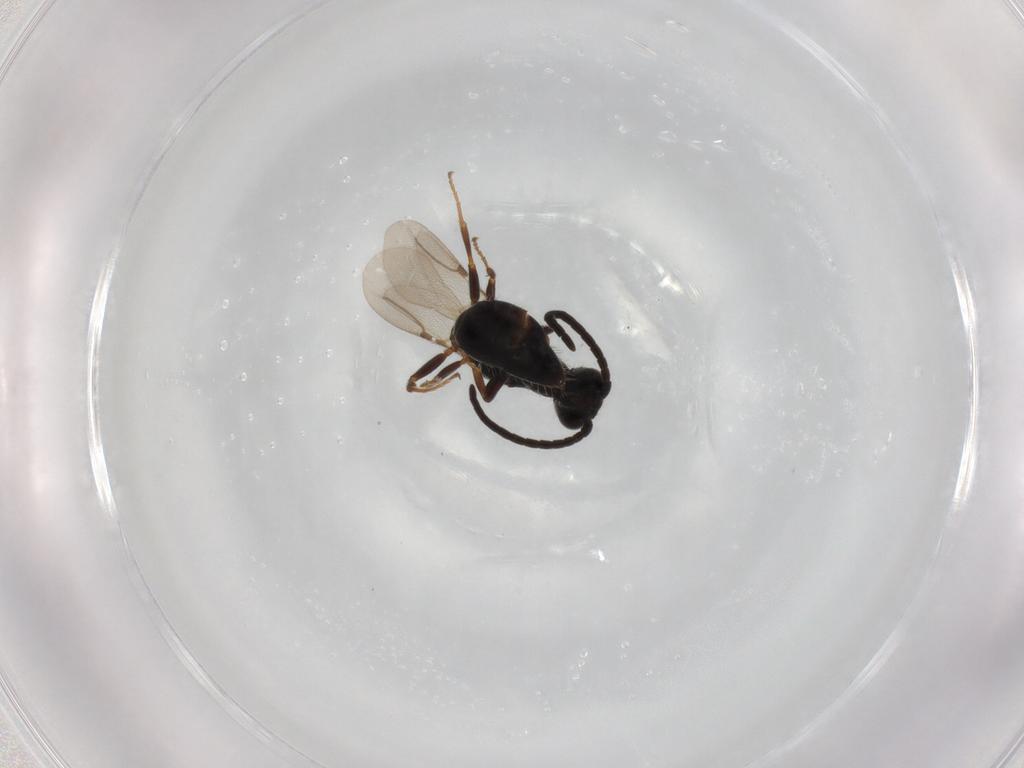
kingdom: Animalia
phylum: Arthropoda
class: Insecta
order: Hymenoptera
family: Bethylidae
